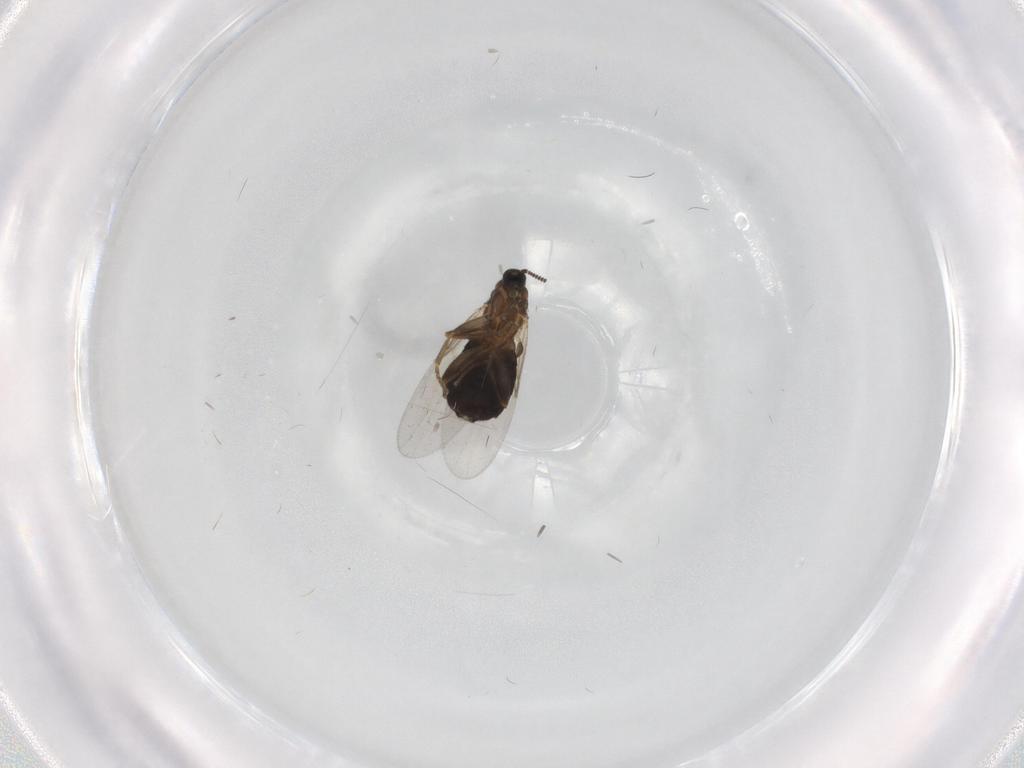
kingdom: Animalia
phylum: Arthropoda
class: Insecta
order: Diptera
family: Scatopsidae
